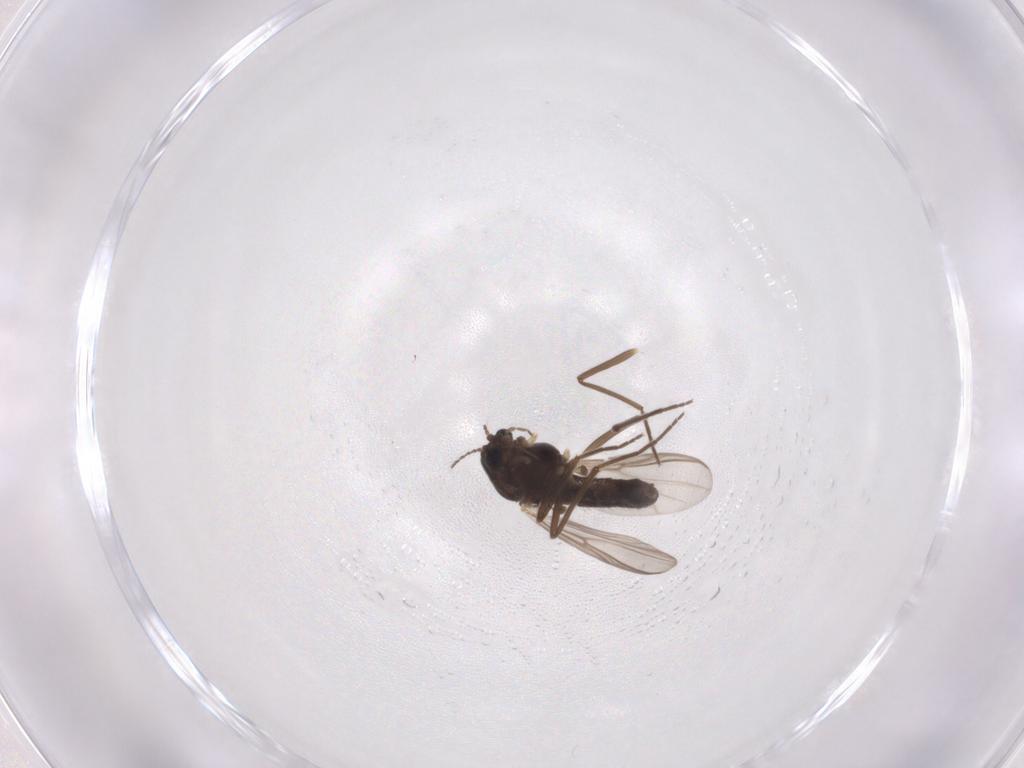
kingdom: Animalia
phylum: Arthropoda
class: Insecta
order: Diptera
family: Chironomidae
